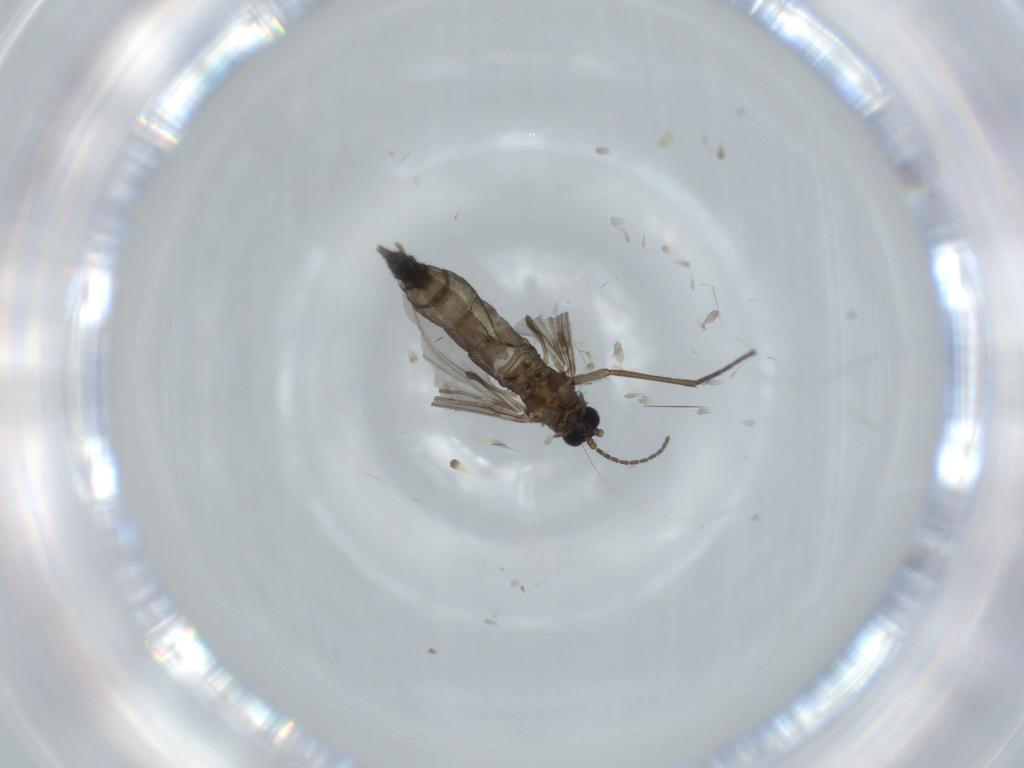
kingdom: Animalia
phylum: Arthropoda
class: Insecta
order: Diptera
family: Sciaridae
